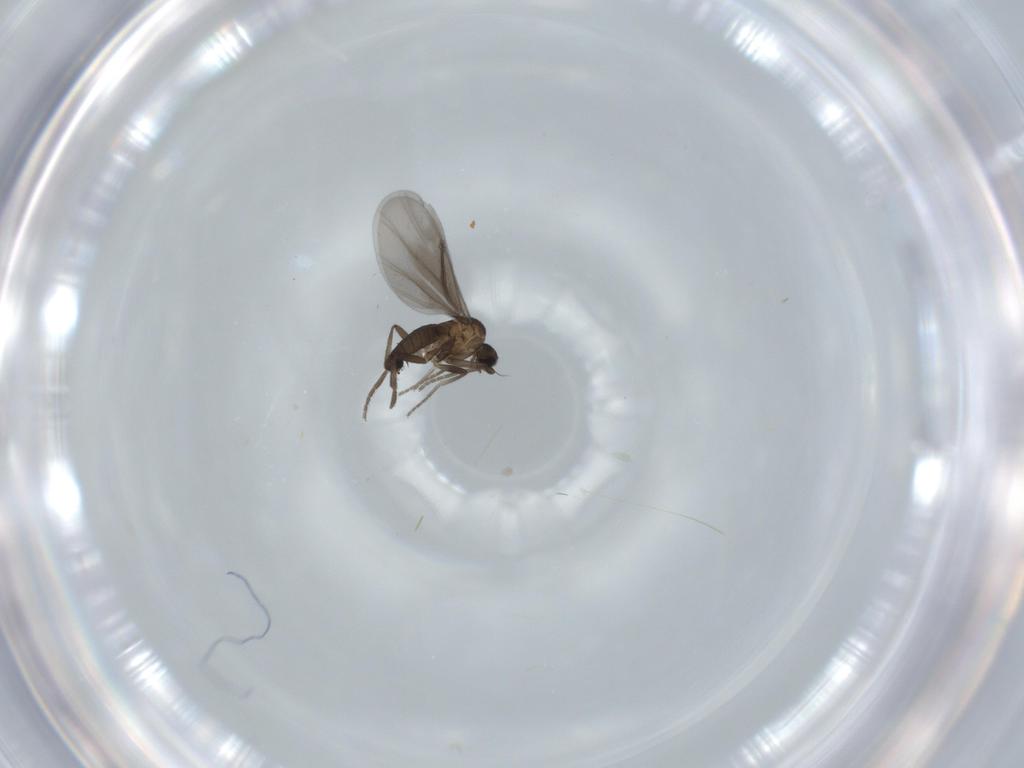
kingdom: Animalia
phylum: Arthropoda
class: Insecta
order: Diptera
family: Phoridae
